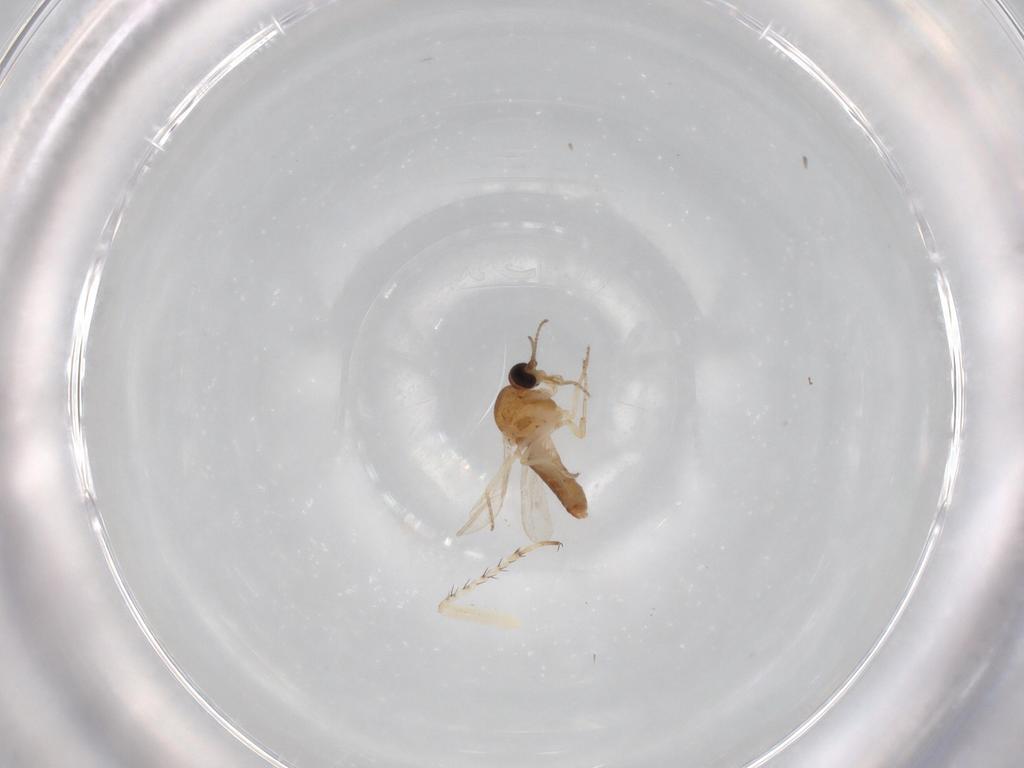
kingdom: Animalia
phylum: Arthropoda
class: Insecta
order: Diptera
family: Ceratopogonidae
